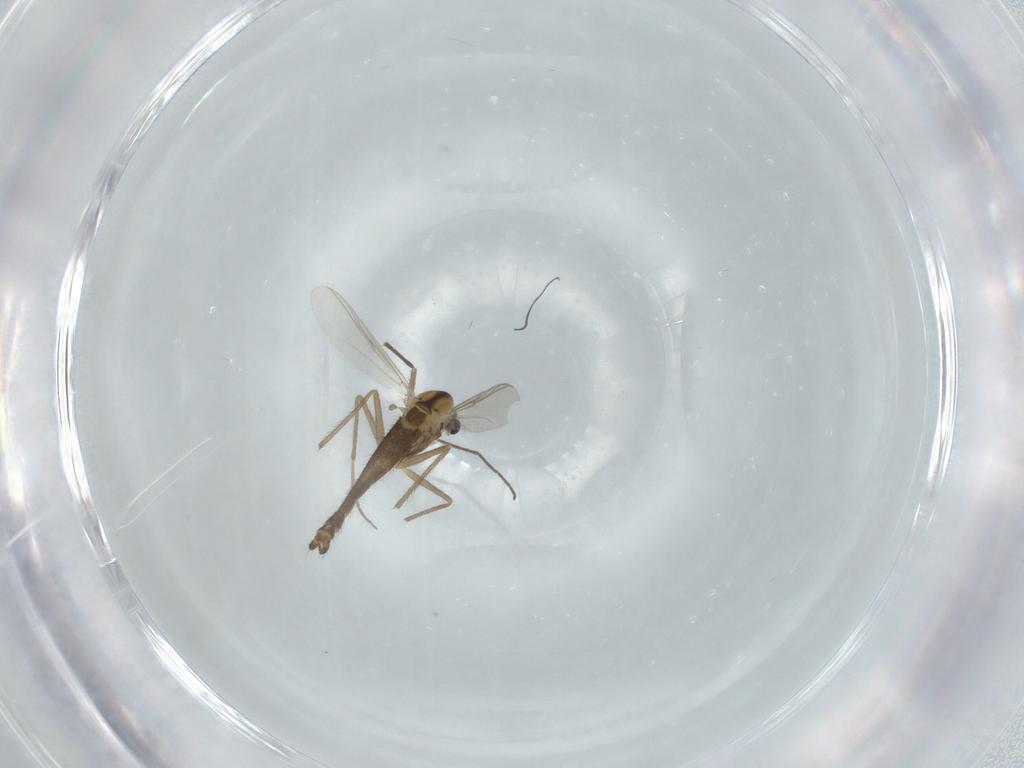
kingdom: Animalia
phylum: Arthropoda
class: Insecta
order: Diptera
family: Chironomidae
